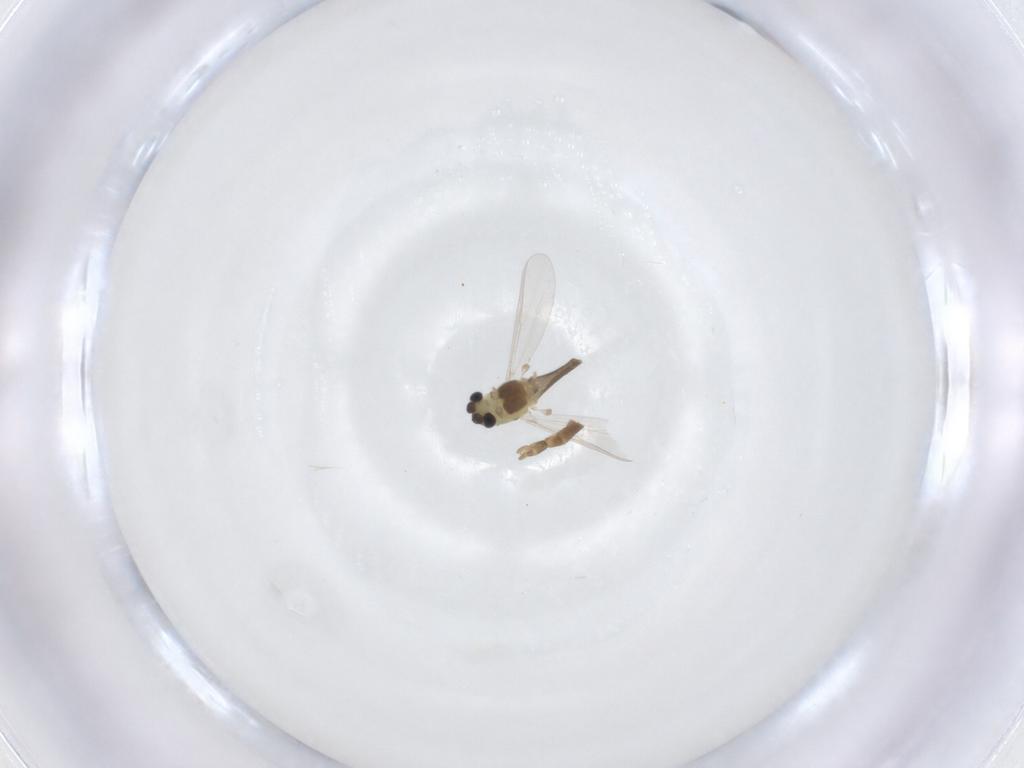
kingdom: Animalia
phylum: Arthropoda
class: Insecta
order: Diptera
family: Chironomidae
